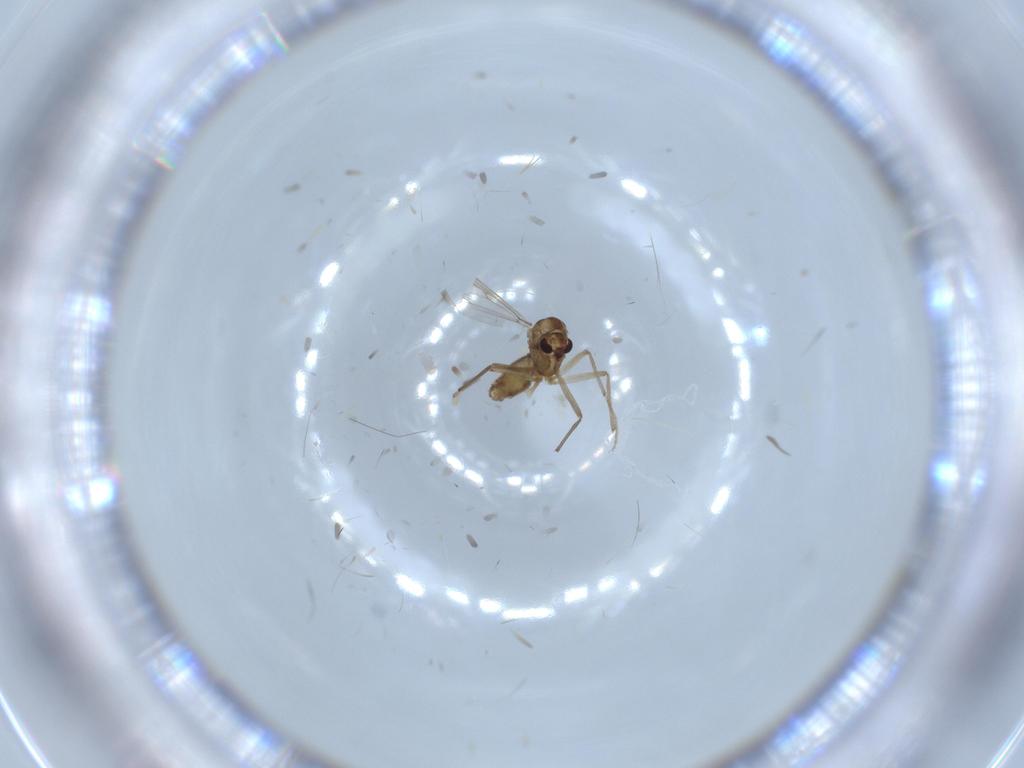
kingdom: Animalia
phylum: Arthropoda
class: Insecta
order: Diptera
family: Chironomidae
